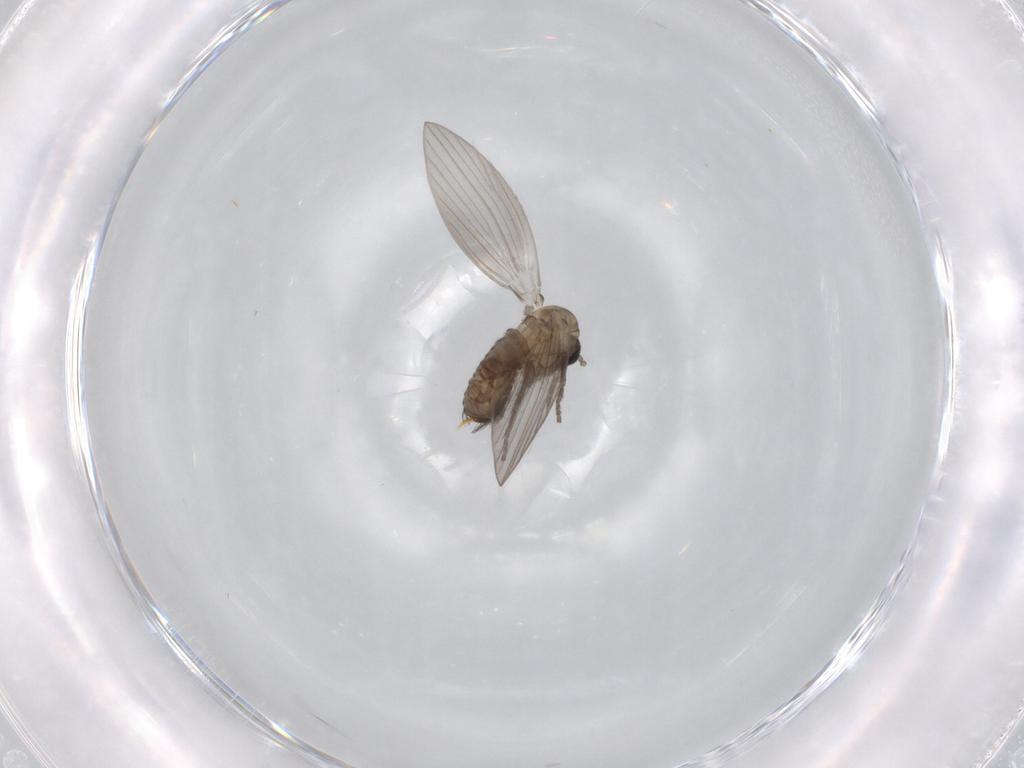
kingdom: Animalia
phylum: Arthropoda
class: Insecta
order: Diptera
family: Psychodidae
